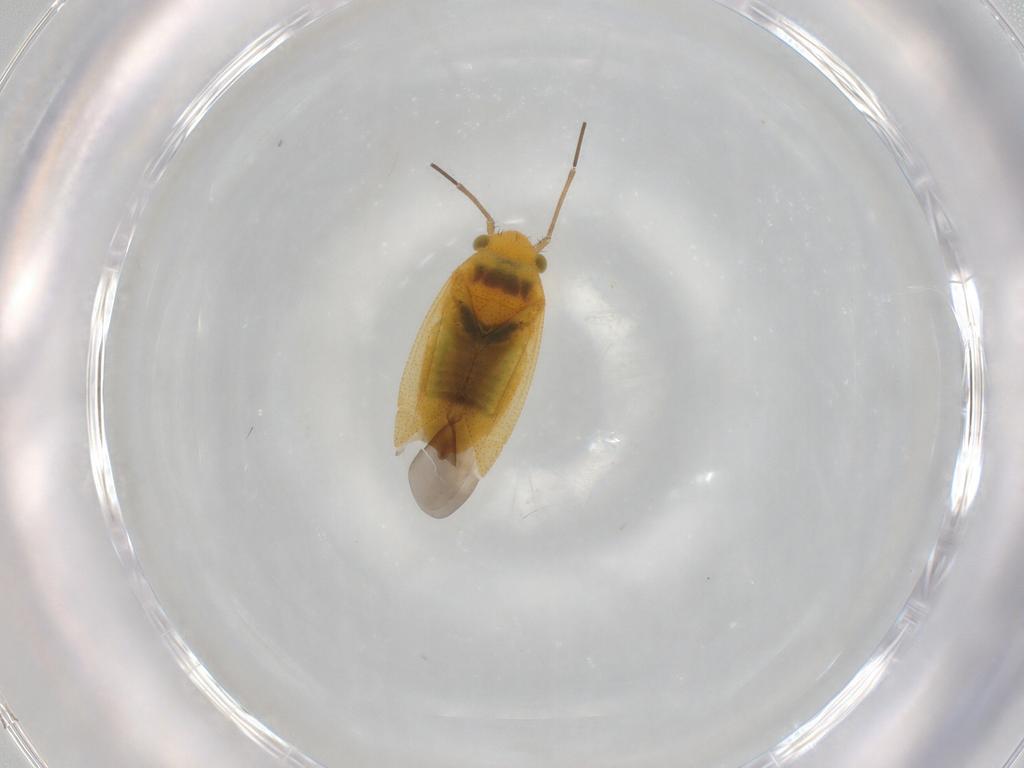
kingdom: Animalia
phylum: Arthropoda
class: Insecta
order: Hemiptera
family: Miridae
